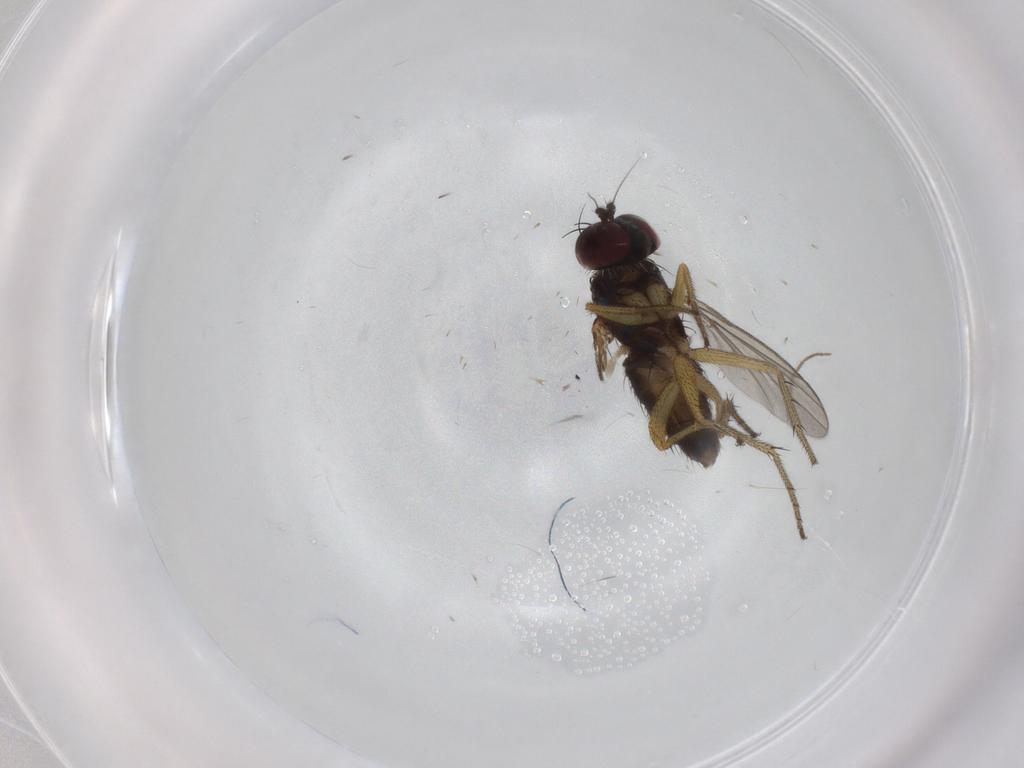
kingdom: Animalia
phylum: Arthropoda
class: Insecta
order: Diptera
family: Dolichopodidae
